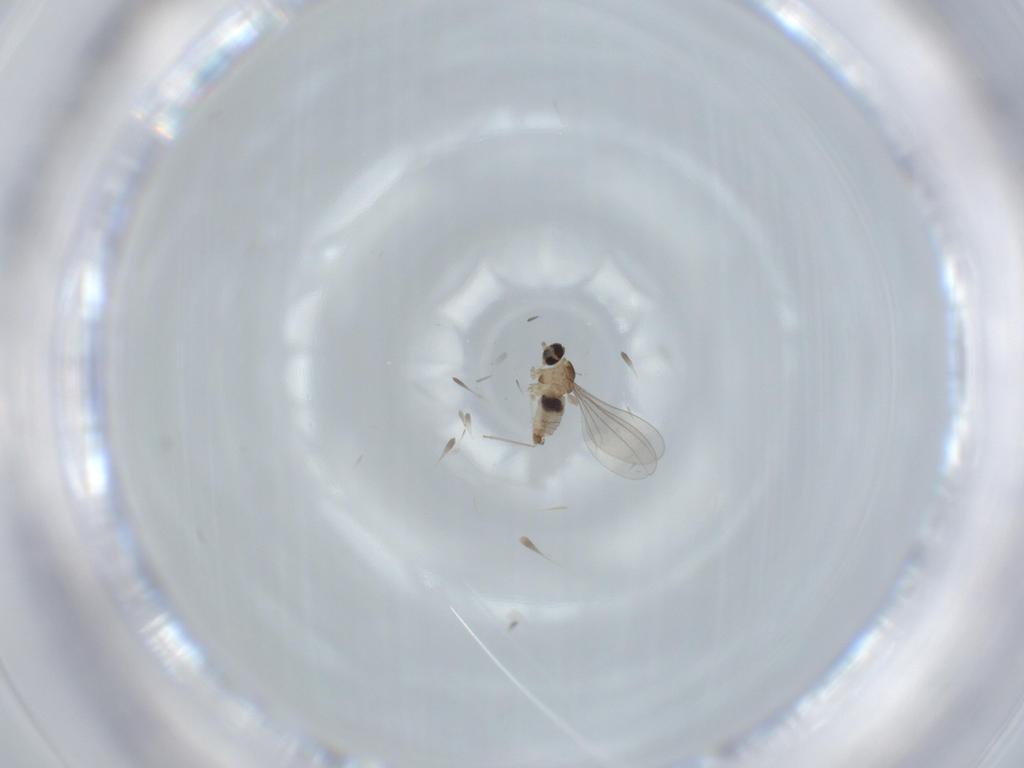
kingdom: Animalia
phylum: Arthropoda
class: Insecta
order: Diptera
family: Cecidomyiidae
